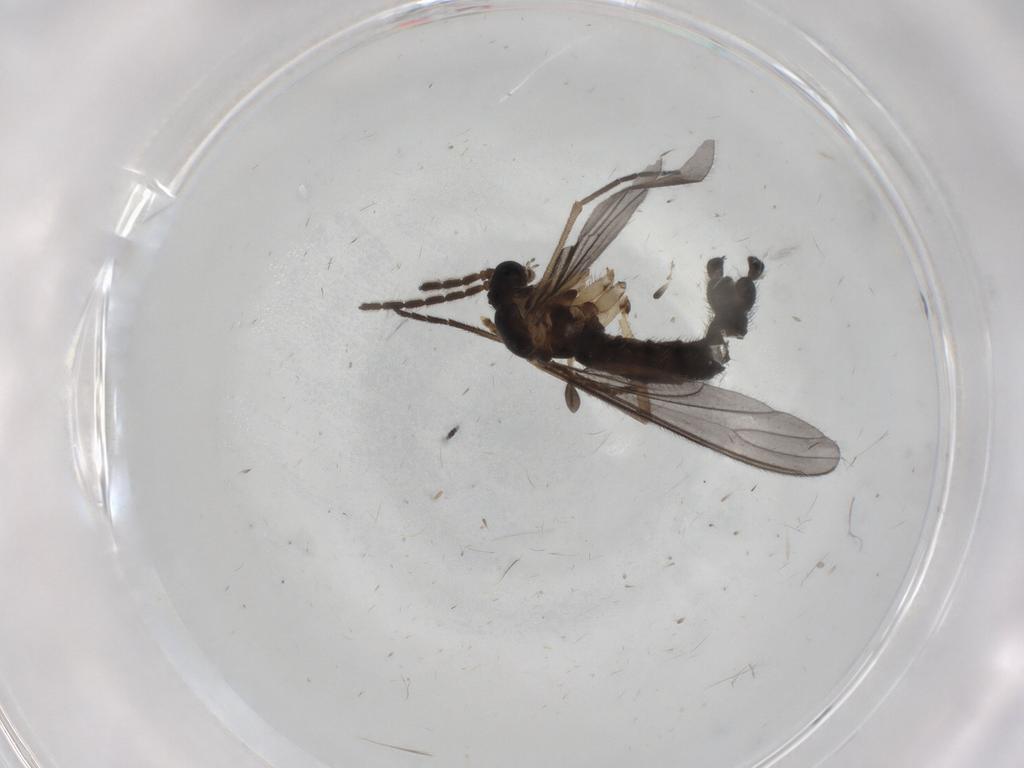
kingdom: Animalia
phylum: Arthropoda
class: Insecta
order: Diptera
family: Sciaridae
